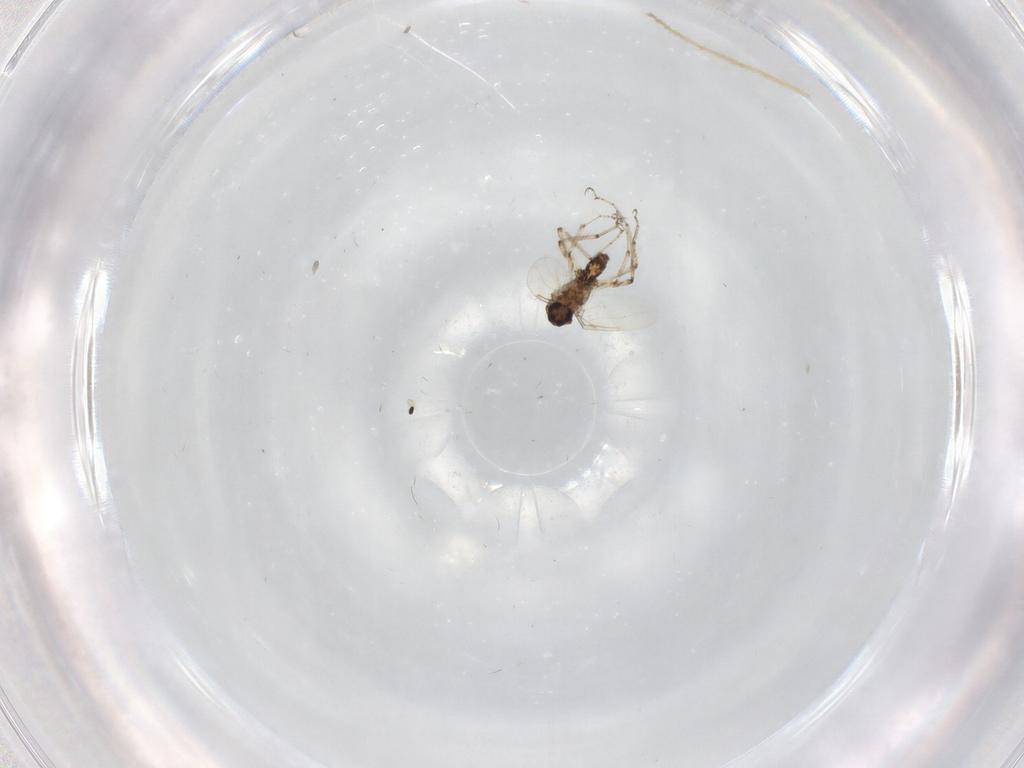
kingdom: Animalia
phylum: Arthropoda
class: Insecta
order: Diptera
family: Ceratopogonidae
